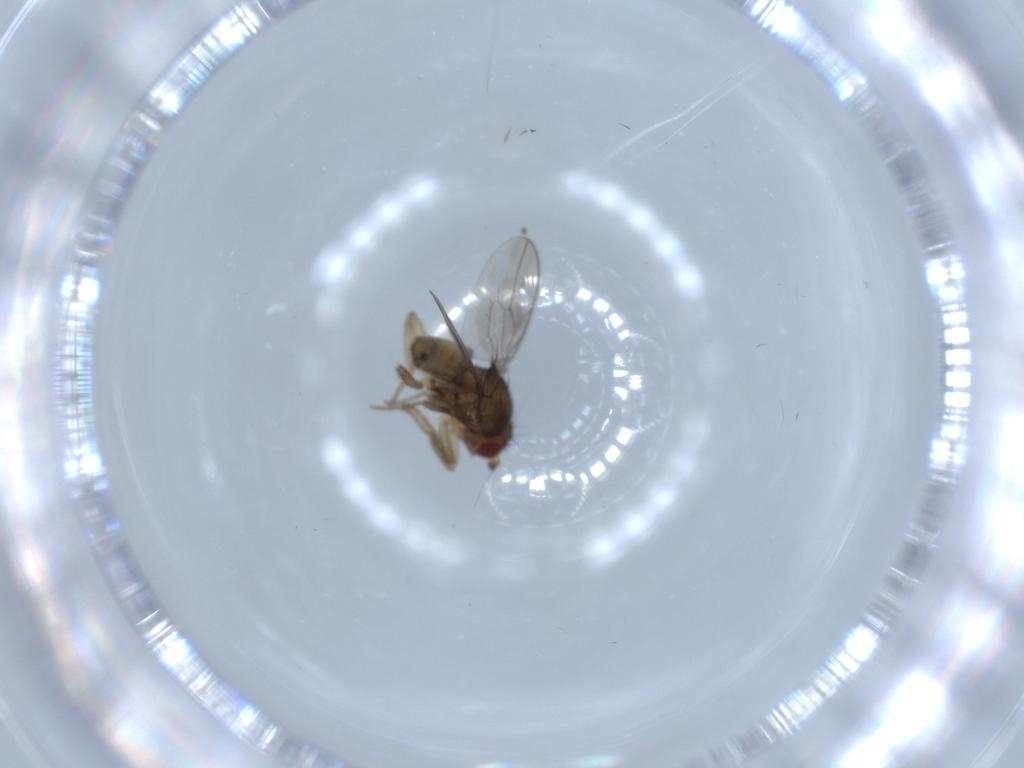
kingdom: Animalia
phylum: Arthropoda
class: Insecta
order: Diptera
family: Sphaeroceridae
